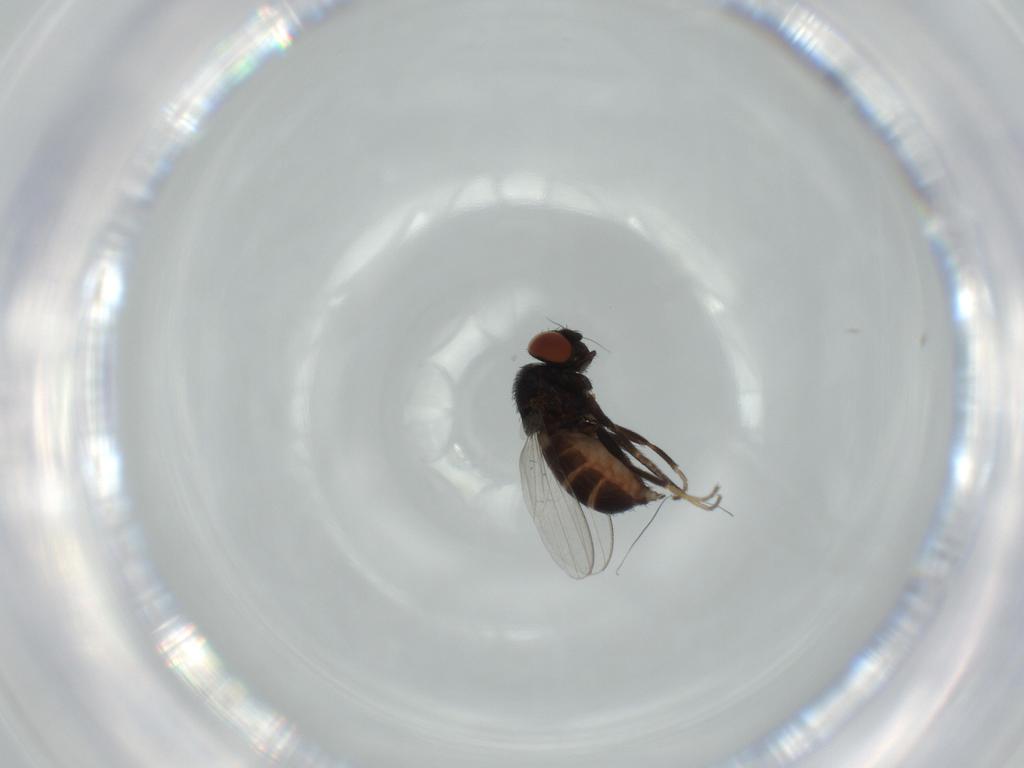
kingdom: Animalia
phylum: Arthropoda
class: Insecta
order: Diptera
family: Milichiidae
